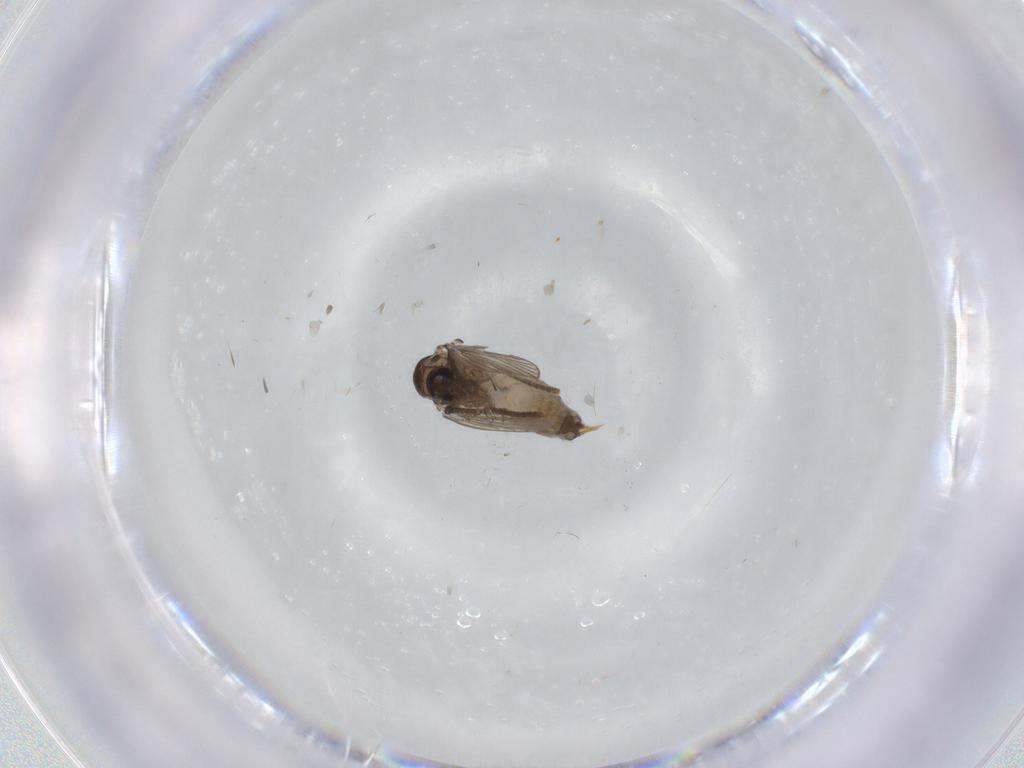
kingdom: Animalia
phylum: Arthropoda
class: Insecta
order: Diptera
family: Psychodidae
